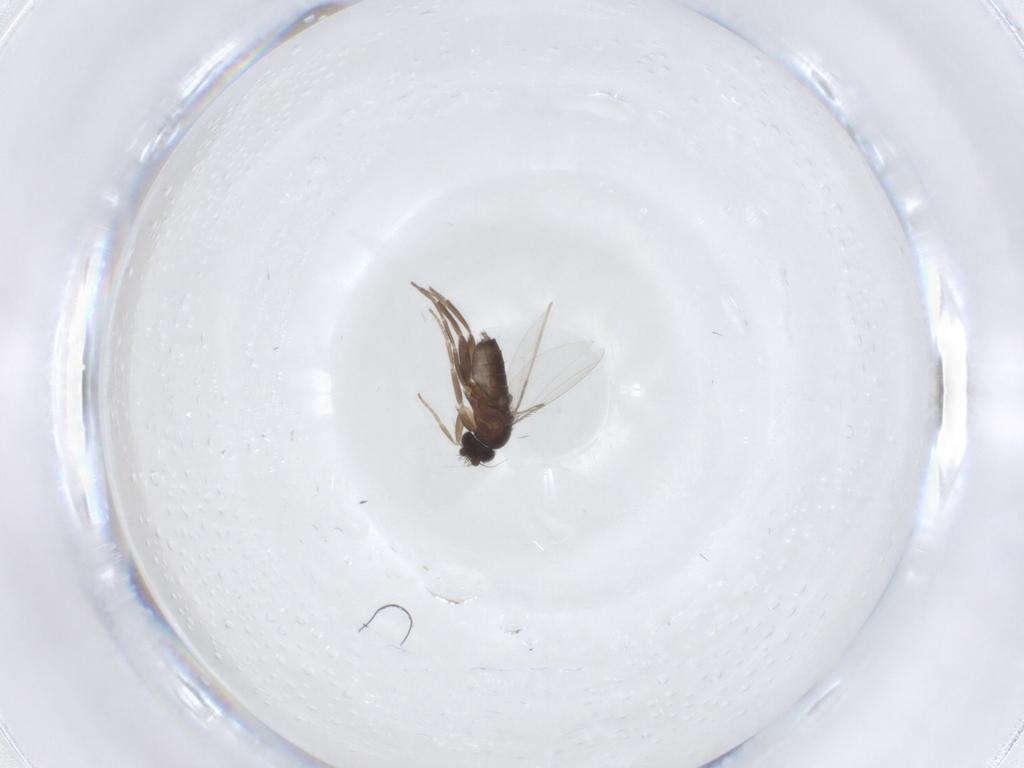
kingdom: Animalia
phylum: Arthropoda
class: Insecta
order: Diptera
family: Phoridae
